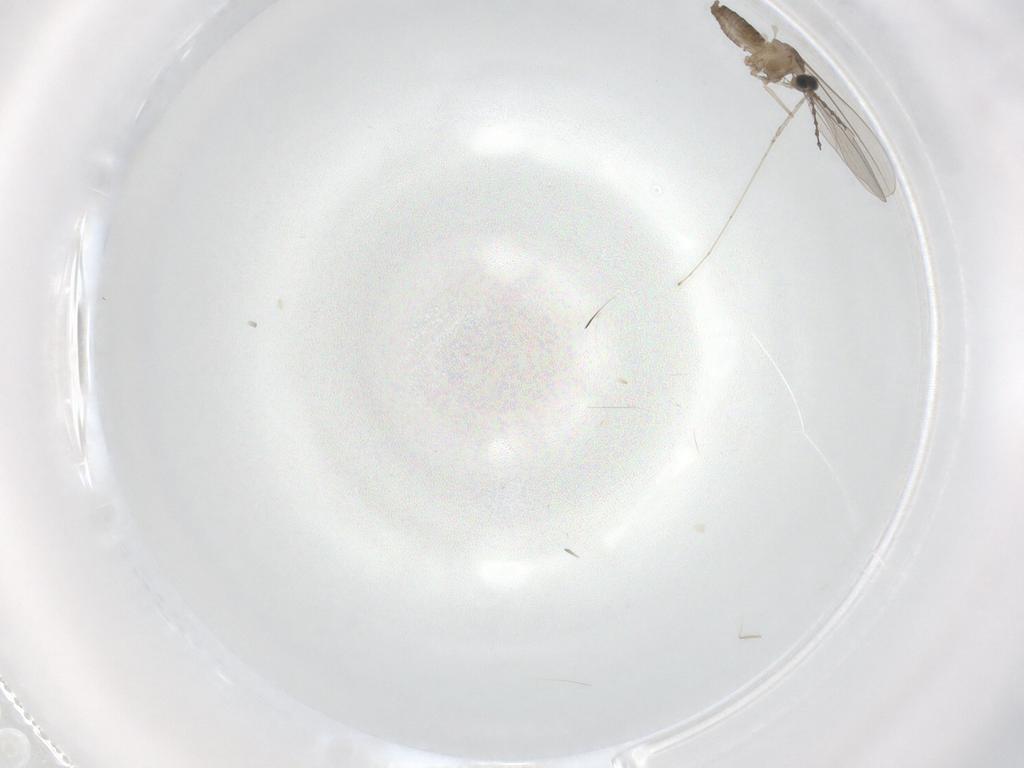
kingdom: Animalia
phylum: Arthropoda
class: Insecta
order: Diptera
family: Cecidomyiidae
